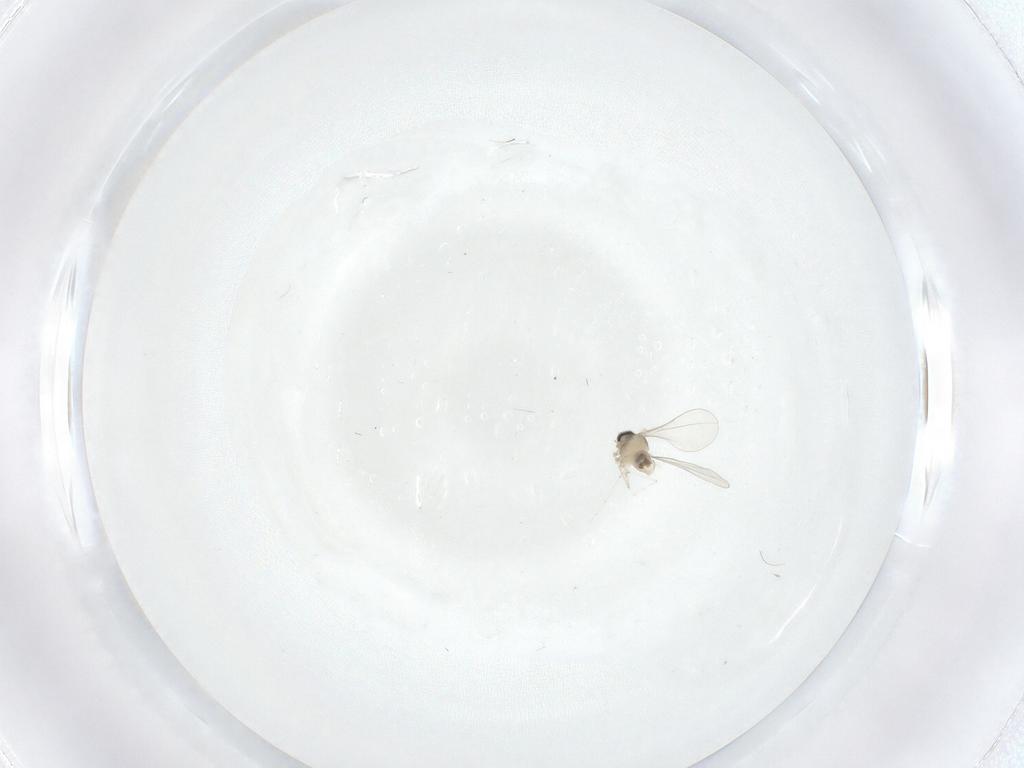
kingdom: Animalia
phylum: Arthropoda
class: Insecta
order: Diptera
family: Cecidomyiidae
